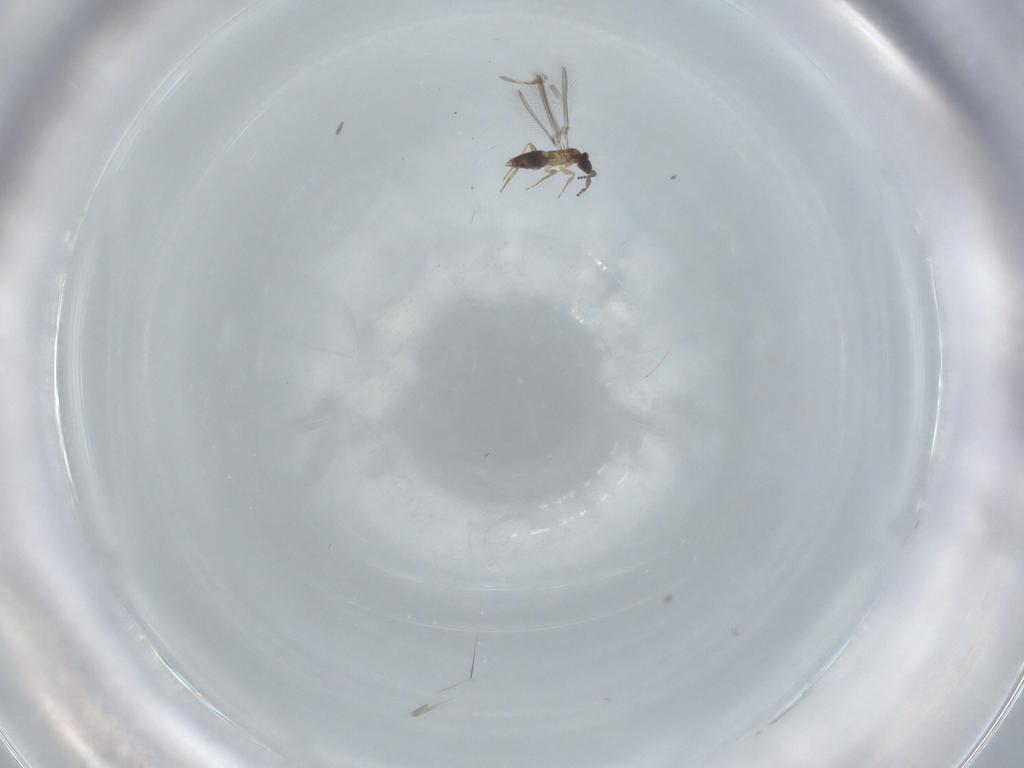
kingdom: Animalia
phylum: Arthropoda
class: Insecta
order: Hymenoptera
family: Mymaridae
